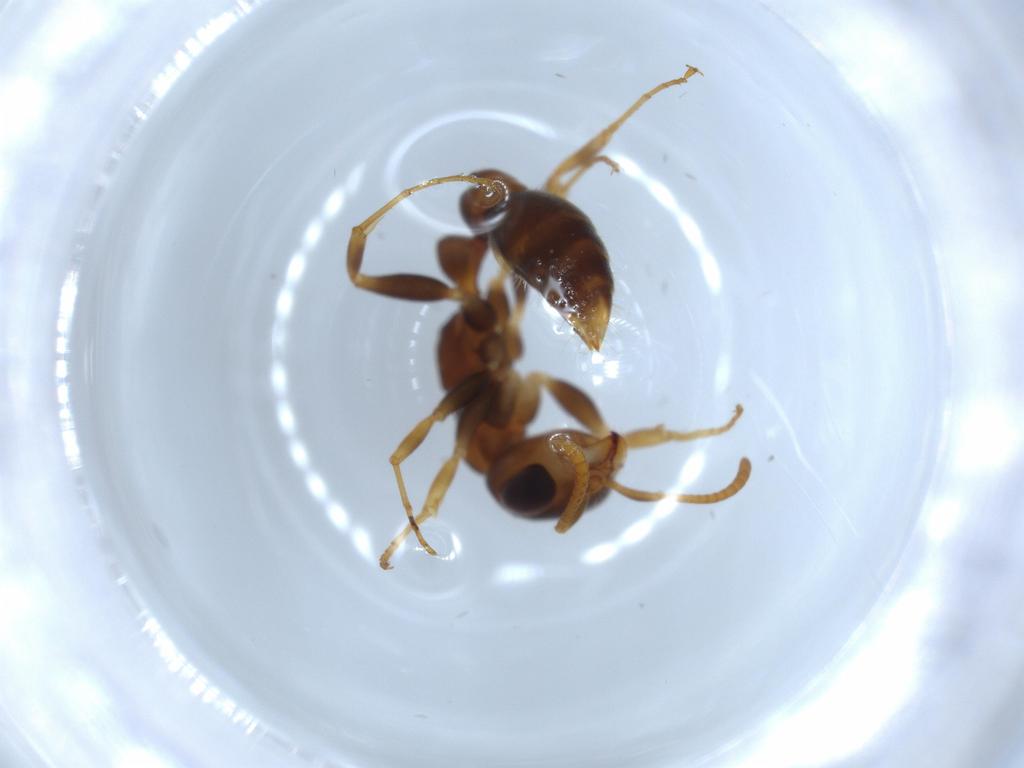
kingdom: Animalia
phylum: Arthropoda
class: Insecta
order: Hymenoptera
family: Formicidae
